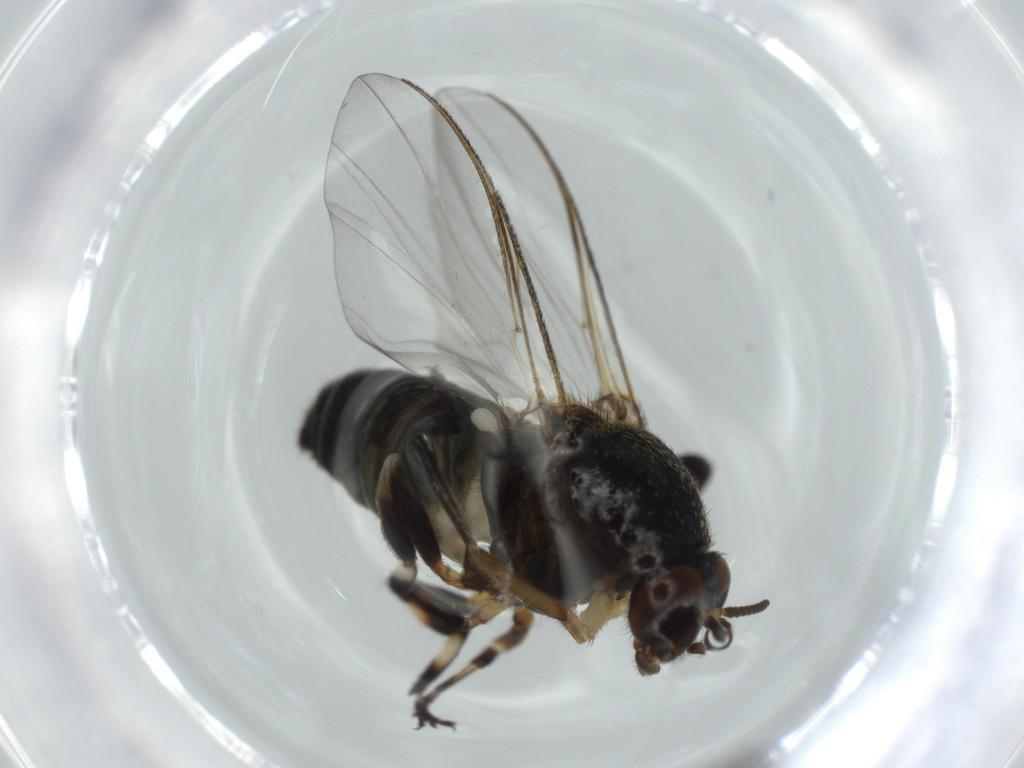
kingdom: Animalia
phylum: Arthropoda
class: Insecta
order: Diptera
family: Cecidomyiidae
